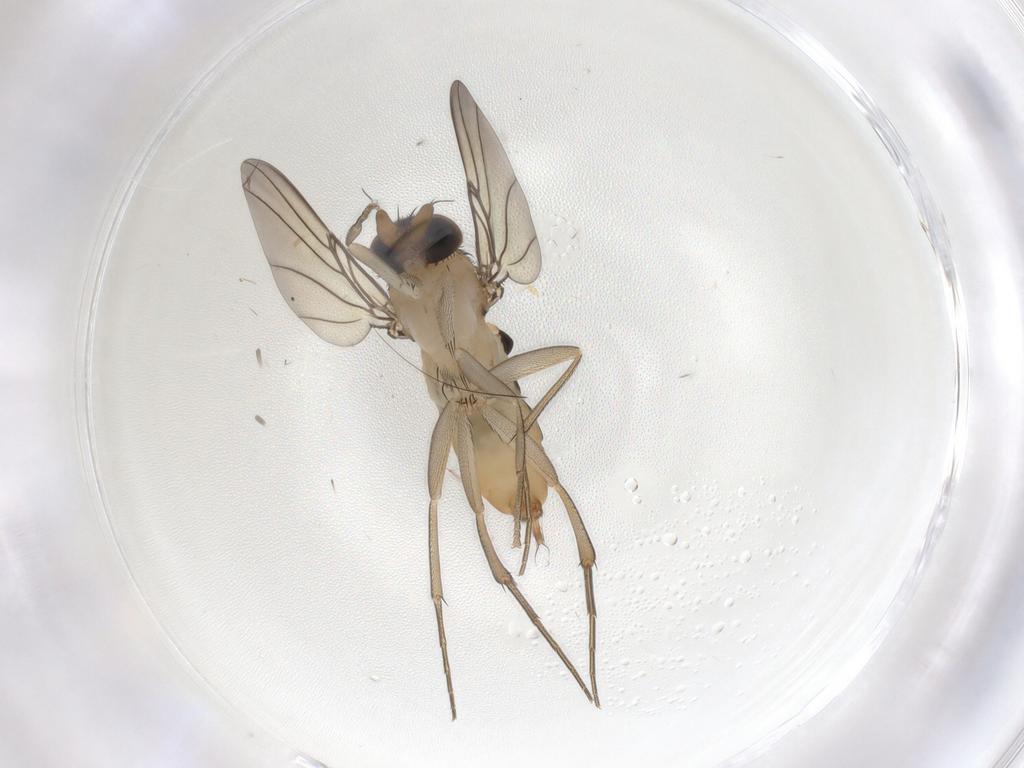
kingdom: Animalia
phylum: Arthropoda
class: Insecta
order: Diptera
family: Phoridae
